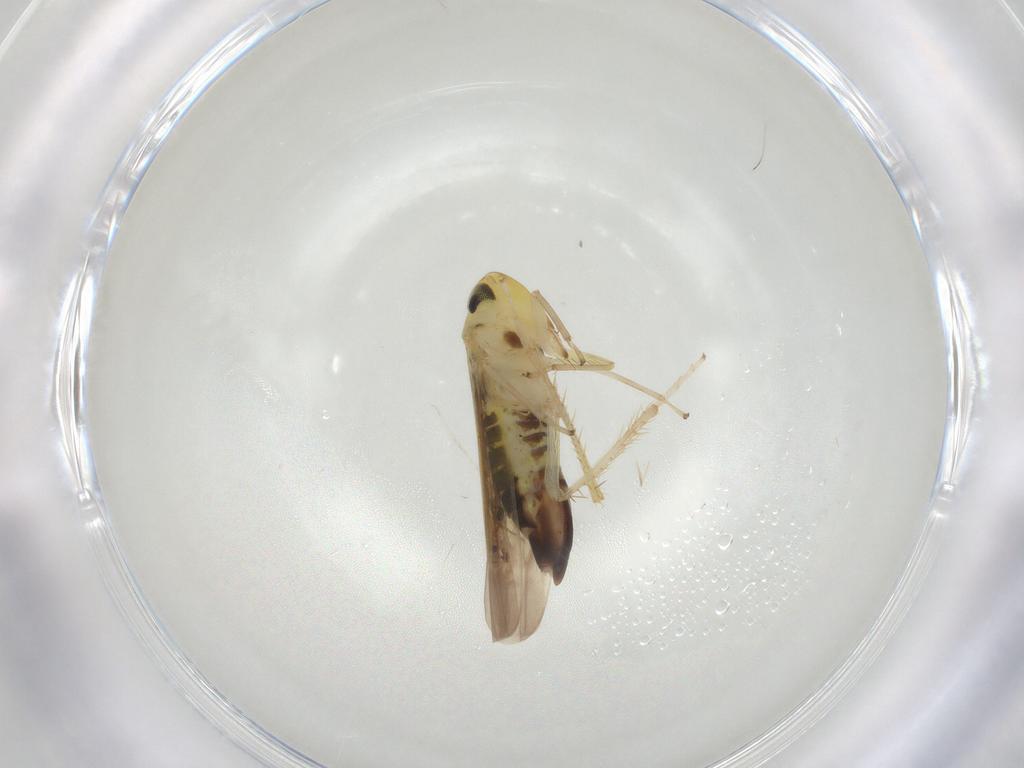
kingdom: Animalia
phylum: Arthropoda
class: Insecta
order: Hemiptera
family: Cicadellidae
